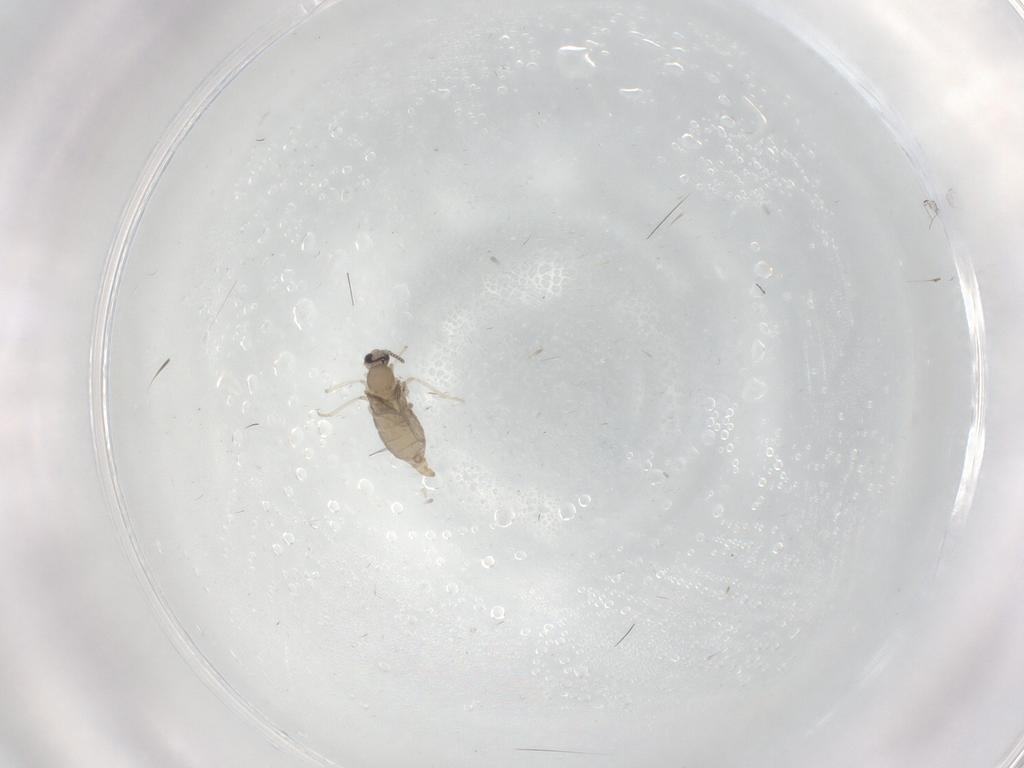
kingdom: Animalia
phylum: Arthropoda
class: Insecta
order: Diptera
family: Cecidomyiidae
